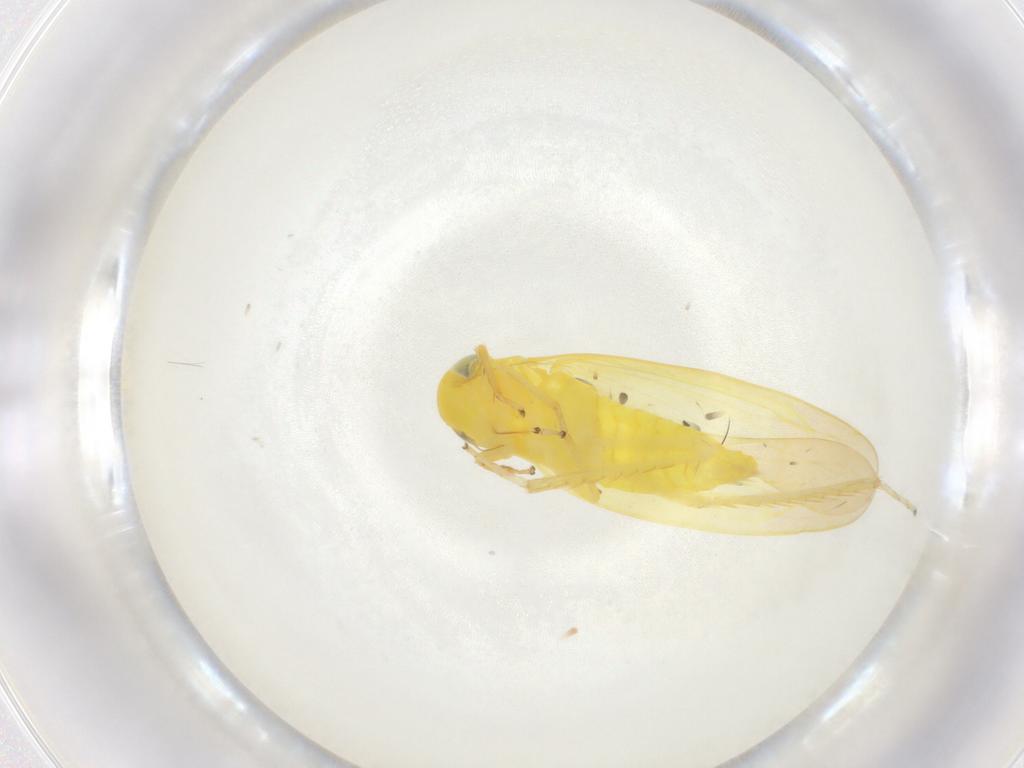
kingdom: Animalia
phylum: Arthropoda
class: Insecta
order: Hemiptera
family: Cicadellidae
